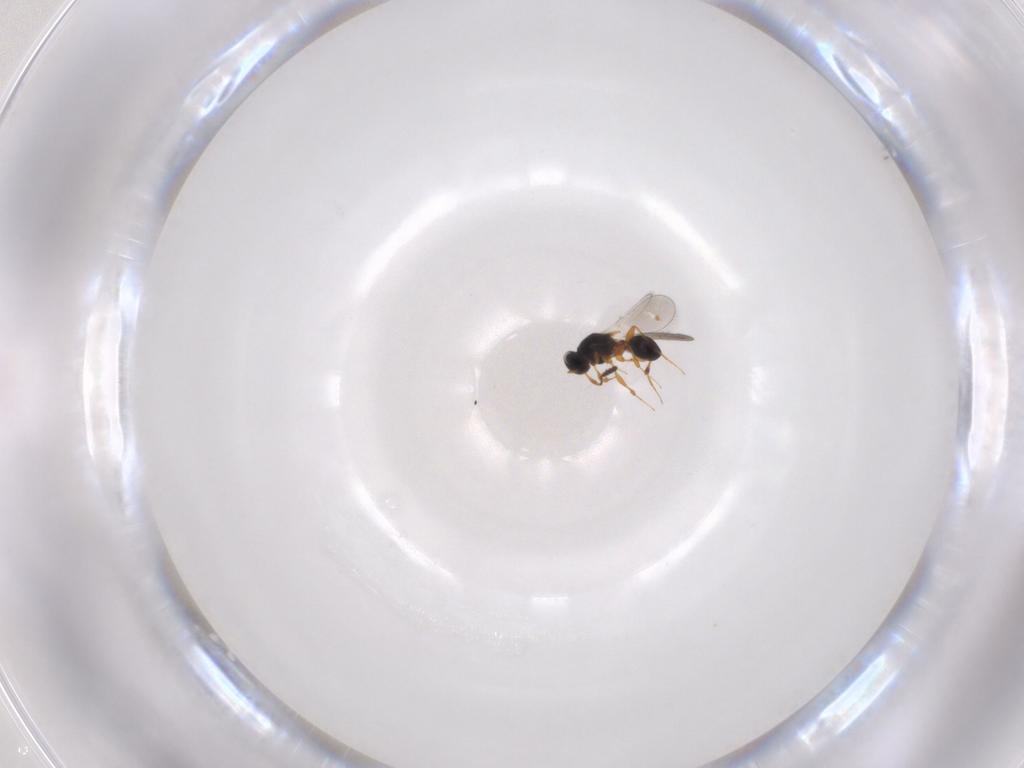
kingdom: Animalia
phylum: Arthropoda
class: Insecta
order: Hymenoptera
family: Platygastridae
